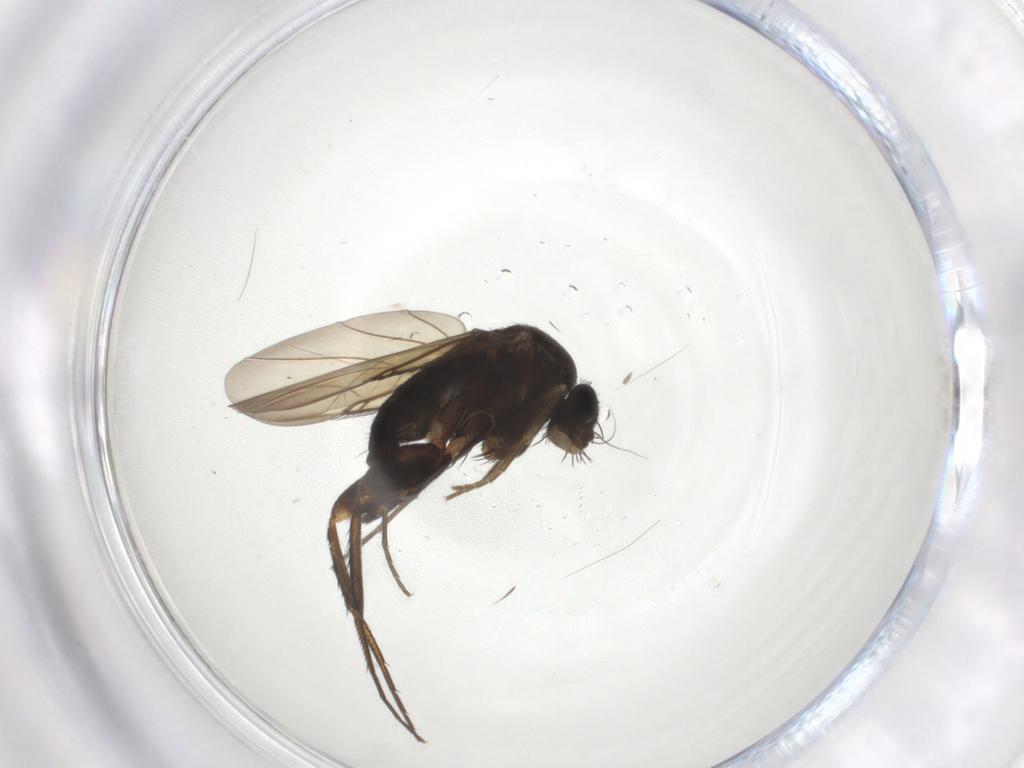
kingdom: Animalia
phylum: Arthropoda
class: Insecta
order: Diptera
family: Phoridae
